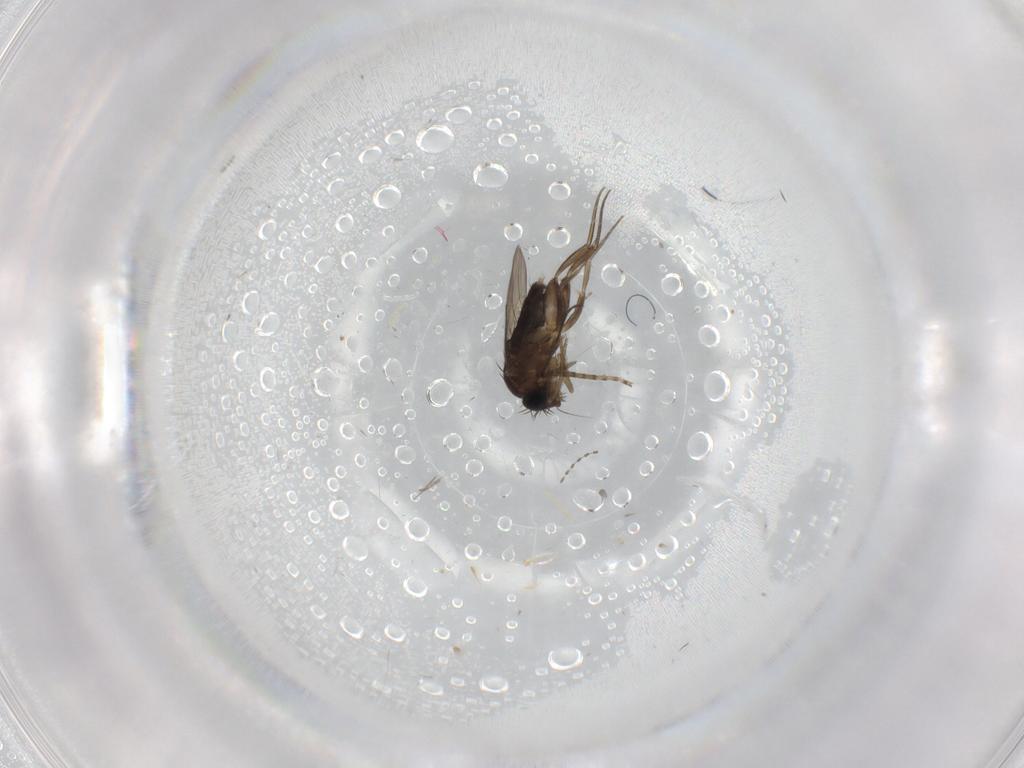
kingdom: Animalia
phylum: Arthropoda
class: Insecta
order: Diptera
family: Phoridae
